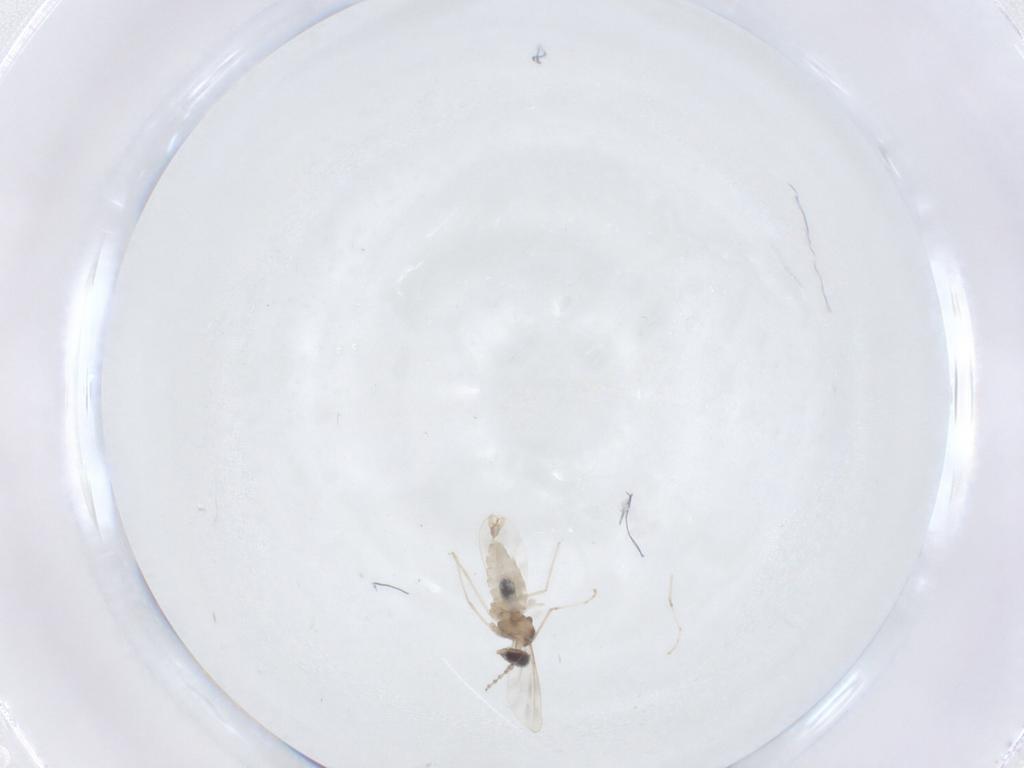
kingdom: Animalia
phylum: Arthropoda
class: Insecta
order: Diptera
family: Cecidomyiidae
